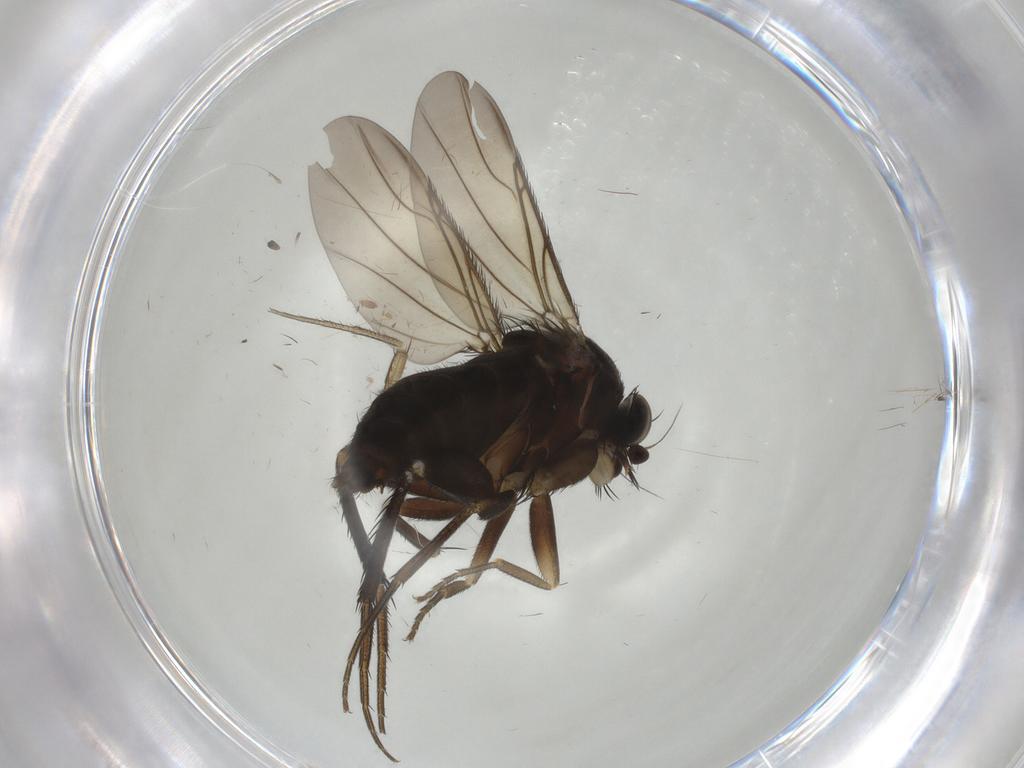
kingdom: Animalia
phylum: Arthropoda
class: Insecta
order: Diptera
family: Phoridae
